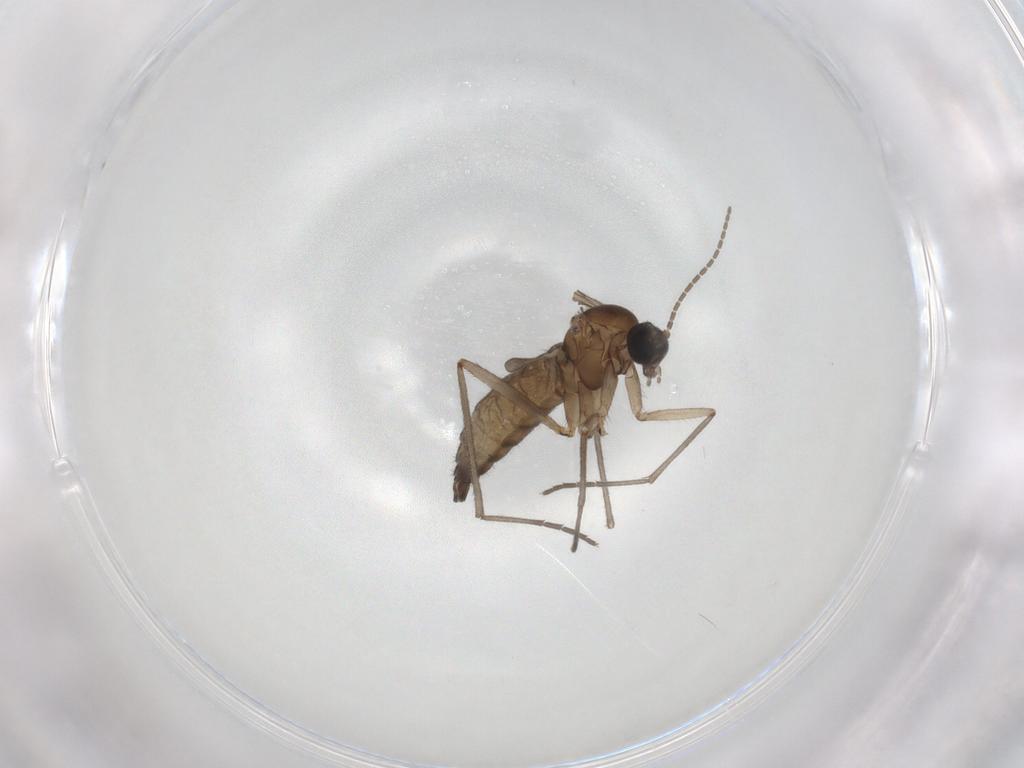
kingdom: Animalia
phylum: Arthropoda
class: Insecta
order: Diptera
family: Sciaridae
